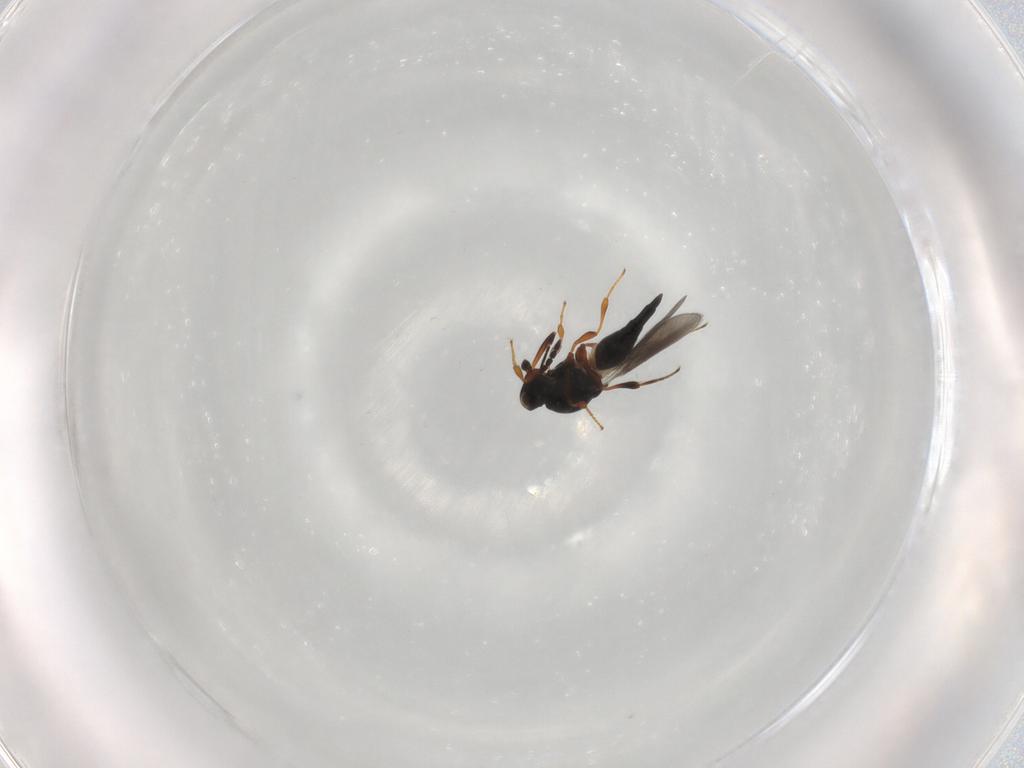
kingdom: Animalia
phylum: Arthropoda
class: Insecta
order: Hymenoptera
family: Platygastridae
